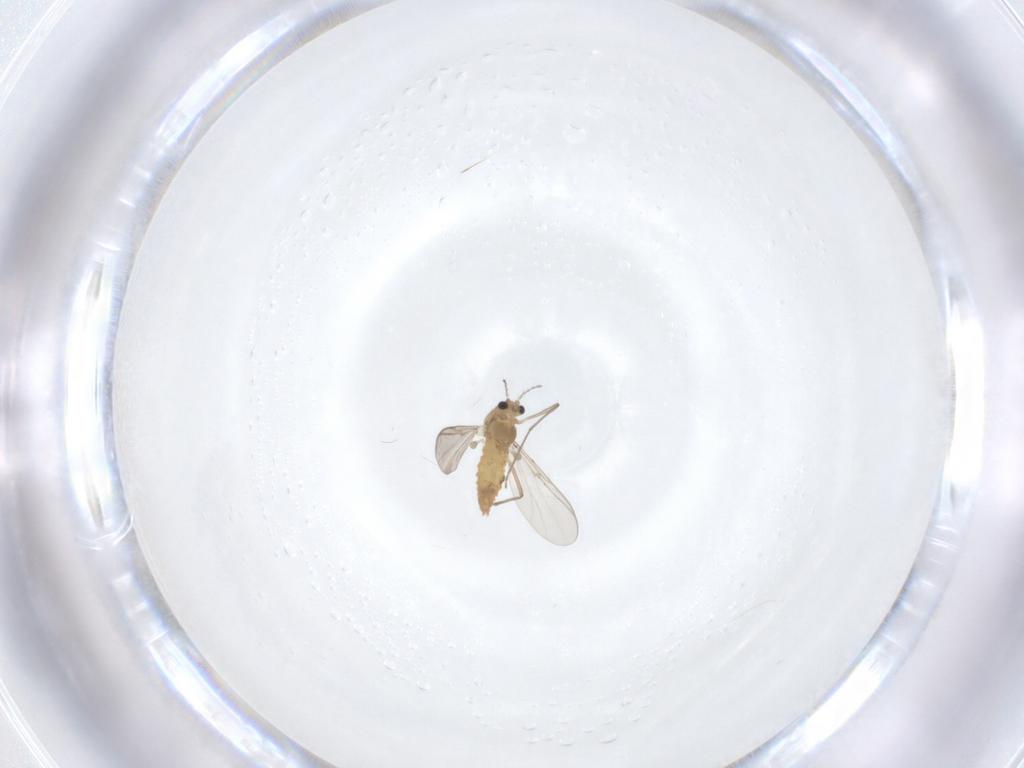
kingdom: Animalia
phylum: Arthropoda
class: Insecta
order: Diptera
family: Chironomidae
